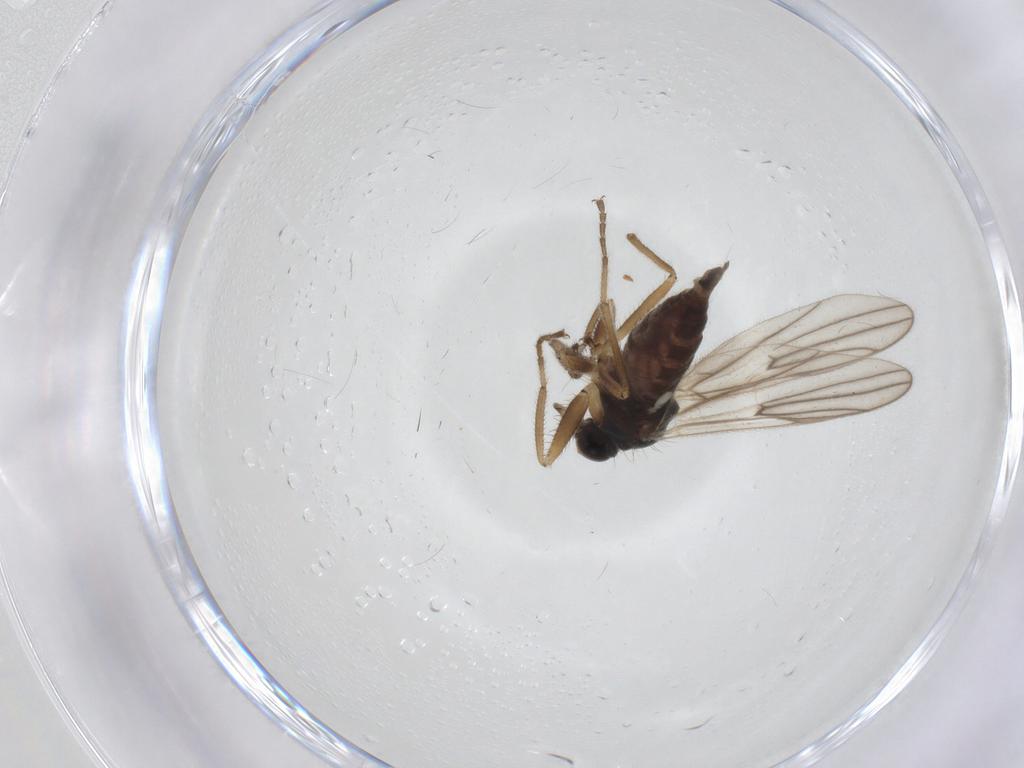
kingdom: Animalia
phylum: Arthropoda
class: Insecta
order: Diptera
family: Hybotidae
